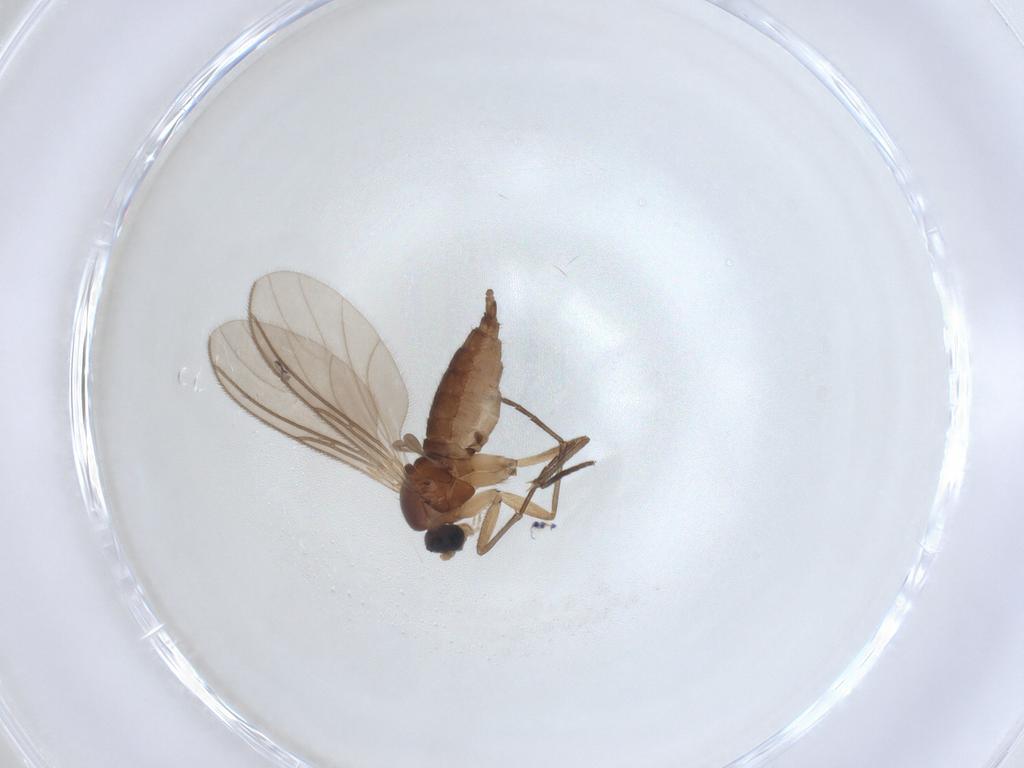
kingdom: Animalia
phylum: Arthropoda
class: Insecta
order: Diptera
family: Sciaridae
